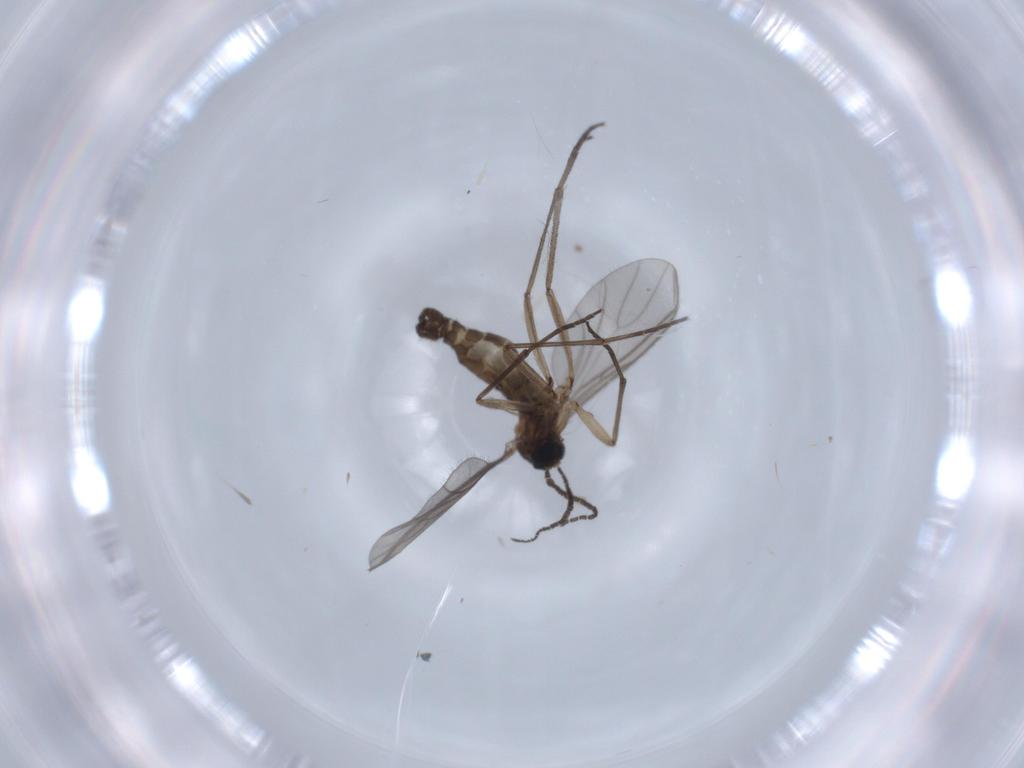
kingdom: Animalia
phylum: Arthropoda
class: Insecta
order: Diptera
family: Sciaridae
